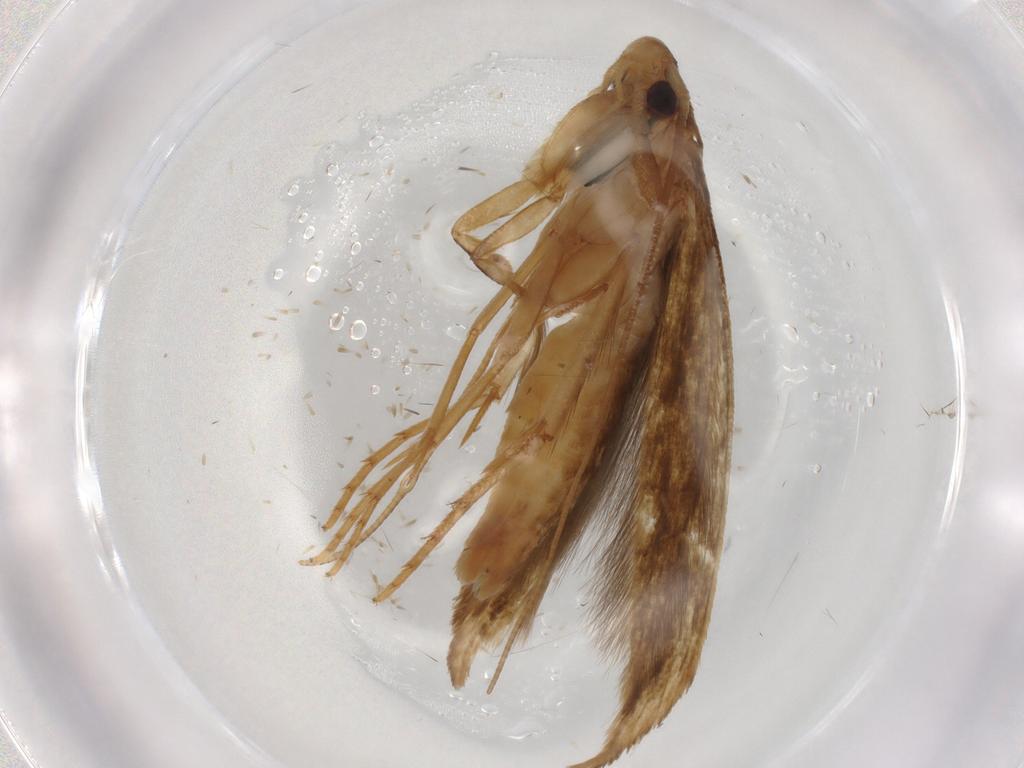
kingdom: Animalia
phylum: Arthropoda
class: Insecta
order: Lepidoptera
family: Tineidae
